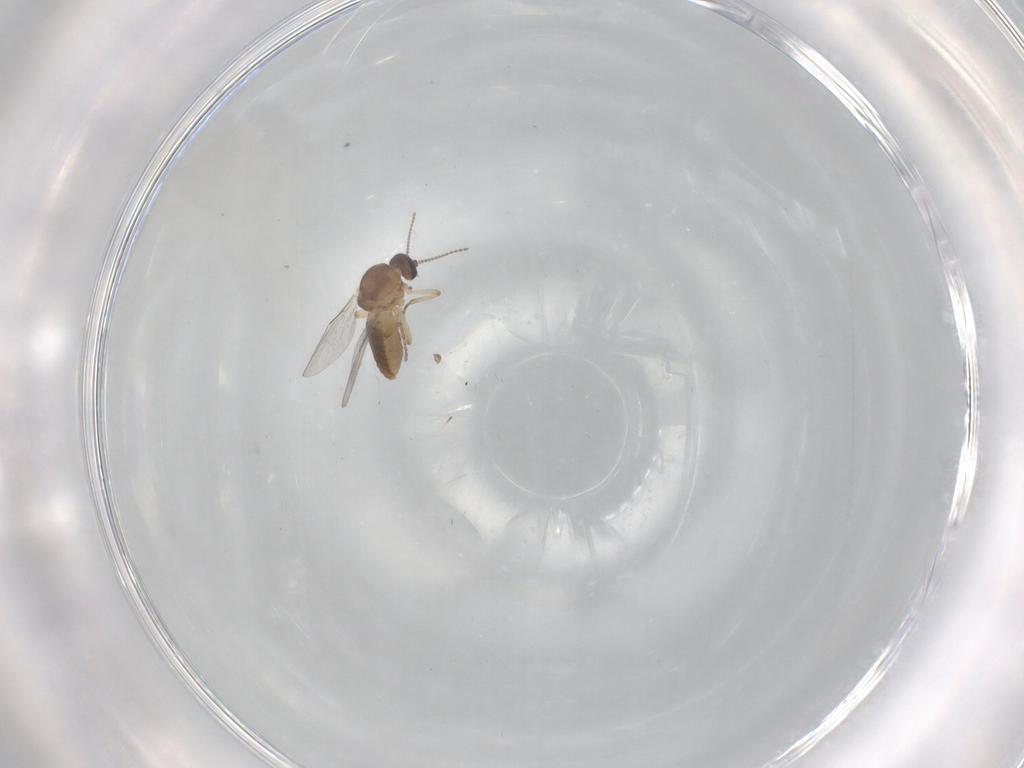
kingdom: Animalia
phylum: Arthropoda
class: Insecta
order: Diptera
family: Ceratopogonidae
